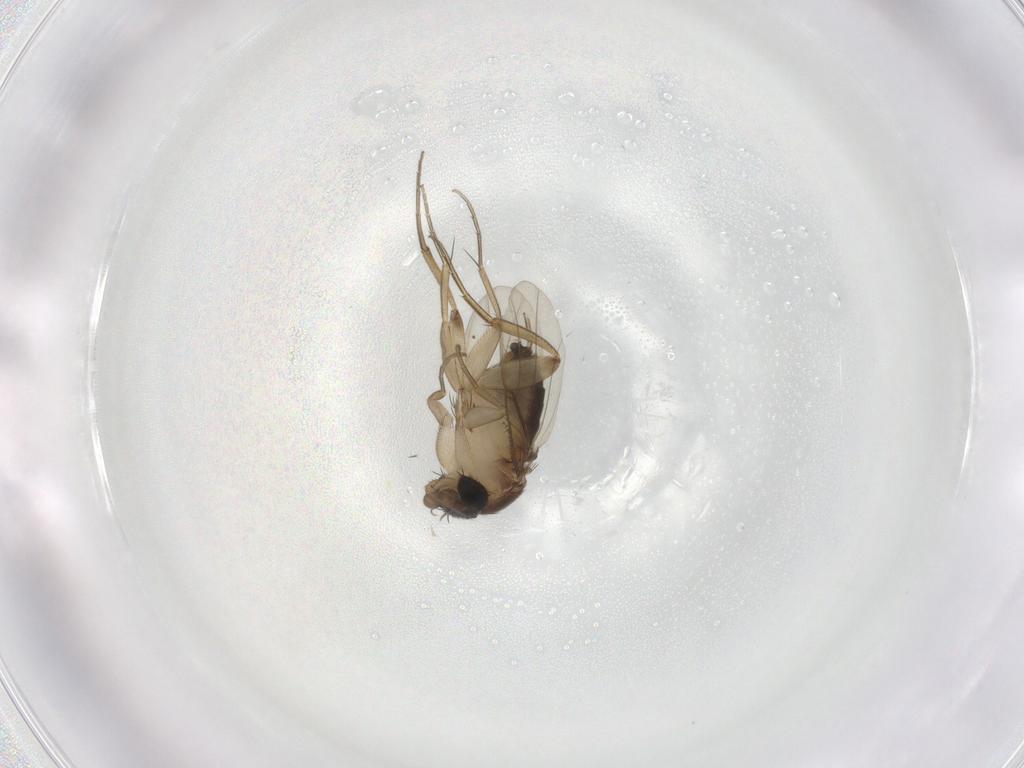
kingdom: Animalia
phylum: Arthropoda
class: Insecta
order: Diptera
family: Phoridae
